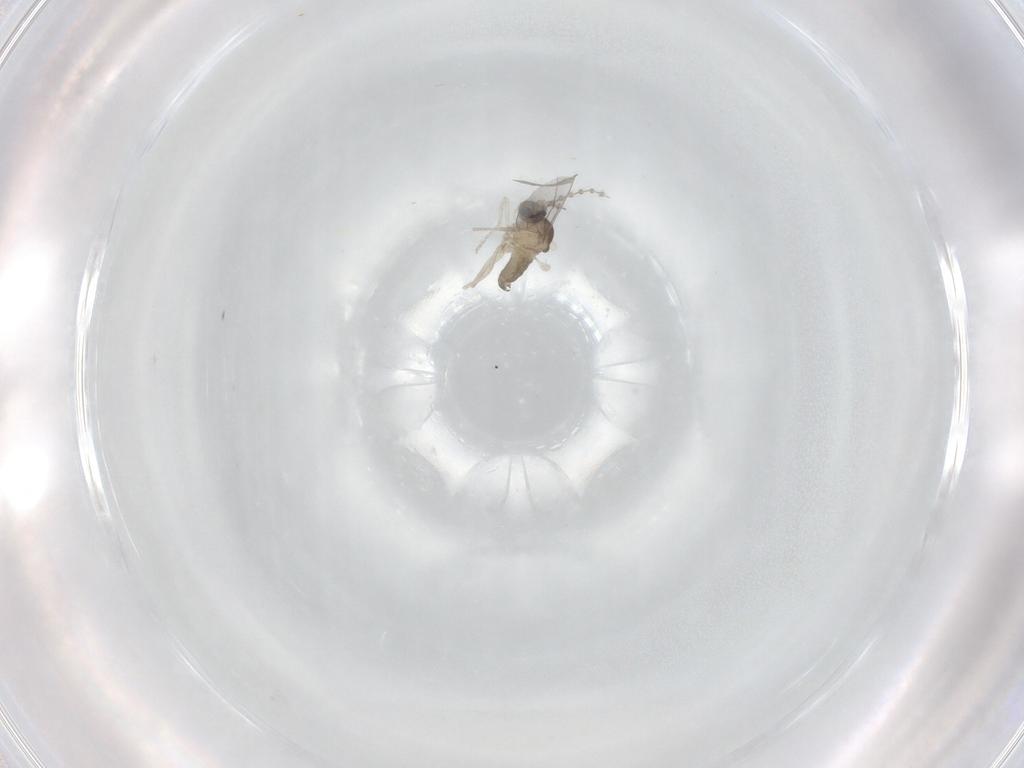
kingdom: Animalia
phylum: Arthropoda
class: Insecta
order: Diptera
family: Cecidomyiidae
